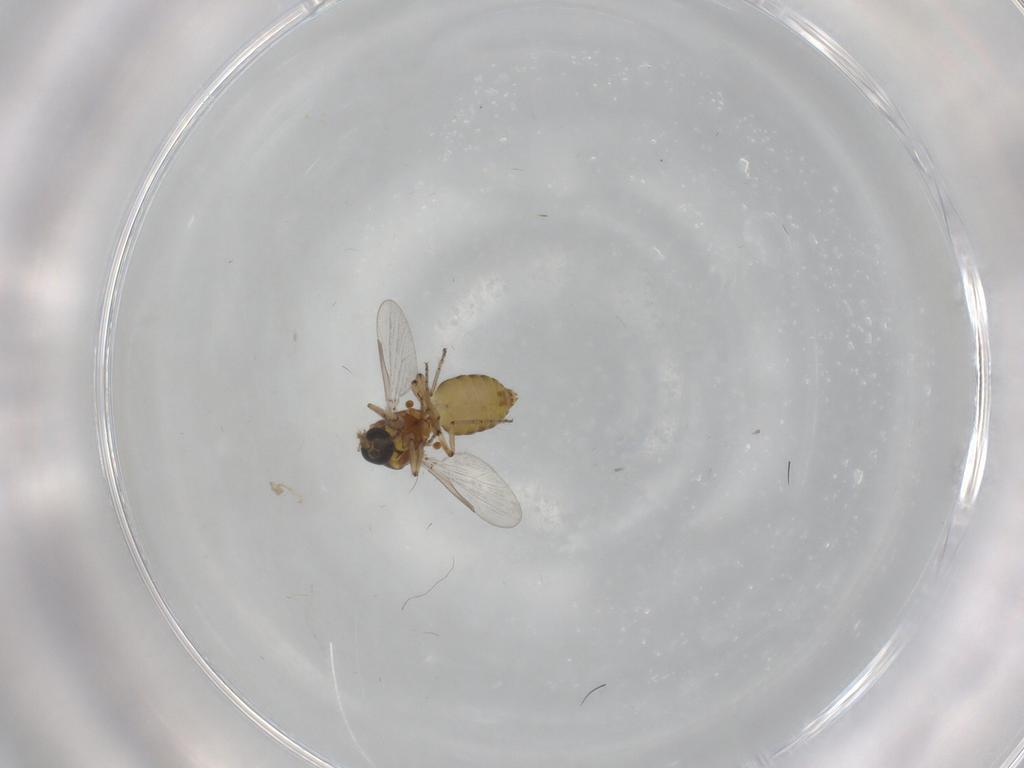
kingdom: Animalia
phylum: Arthropoda
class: Insecta
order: Diptera
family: Ceratopogonidae
